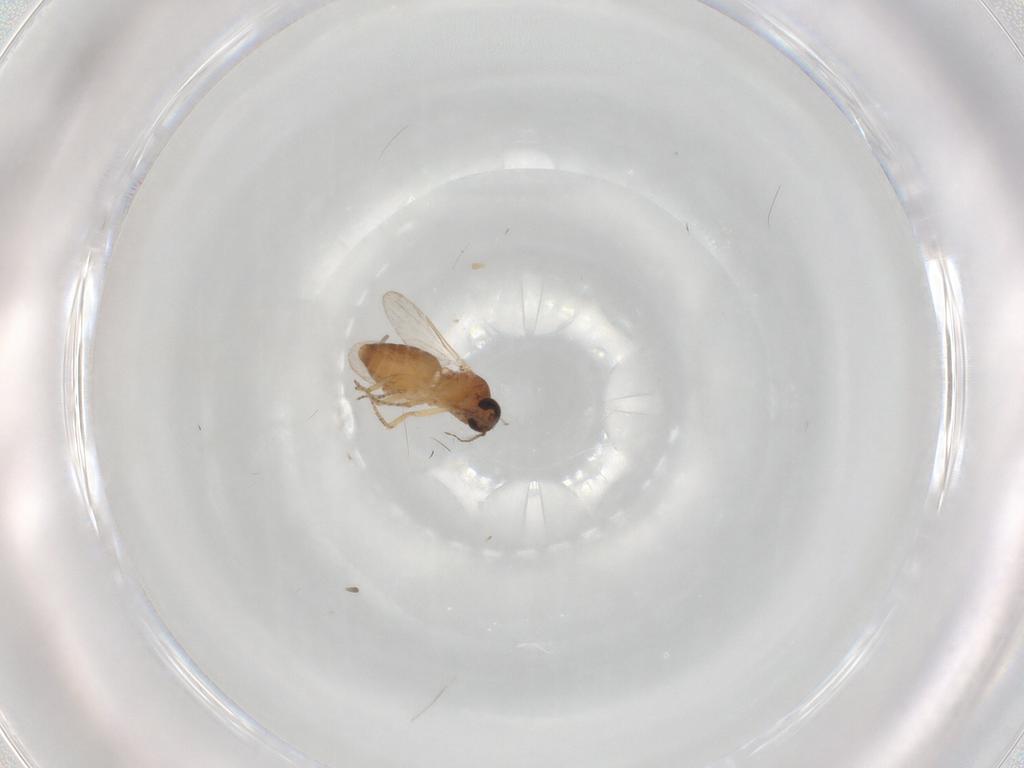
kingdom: Animalia
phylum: Arthropoda
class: Insecta
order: Diptera
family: Ceratopogonidae
